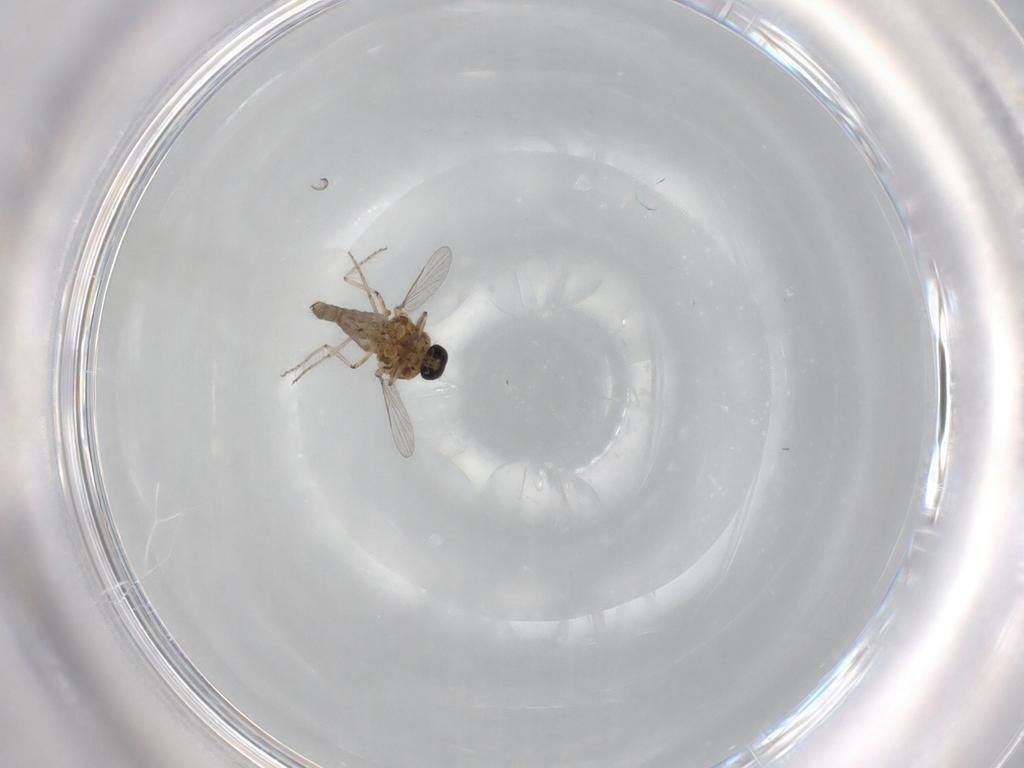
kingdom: Animalia
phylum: Arthropoda
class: Insecta
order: Diptera
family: Ceratopogonidae
